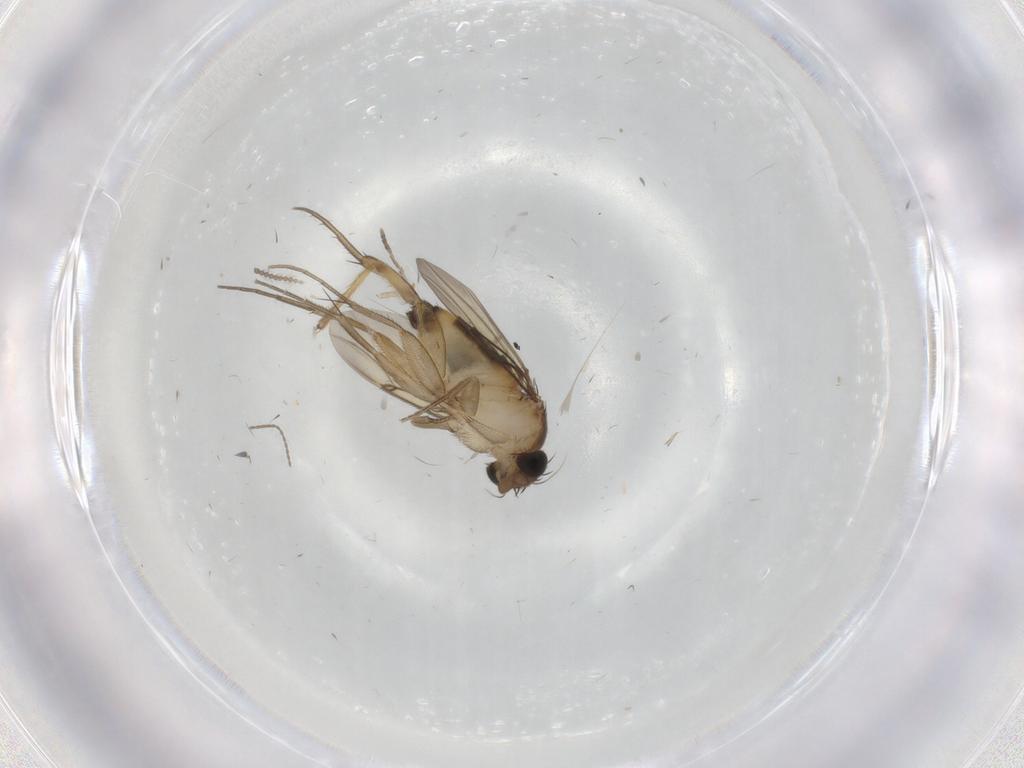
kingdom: Animalia
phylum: Arthropoda
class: Insecta
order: Diptera
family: Chironomidae
